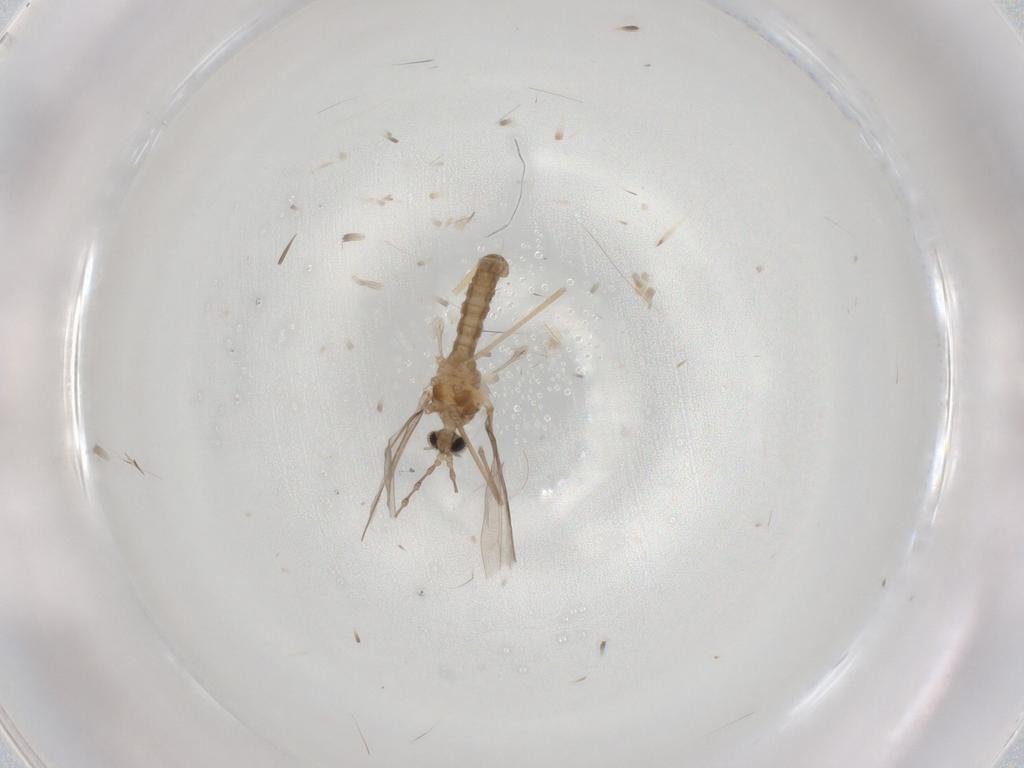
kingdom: Animalia
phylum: Arthropoda
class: Insecta
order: Diptera
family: Cecidomyiidae
